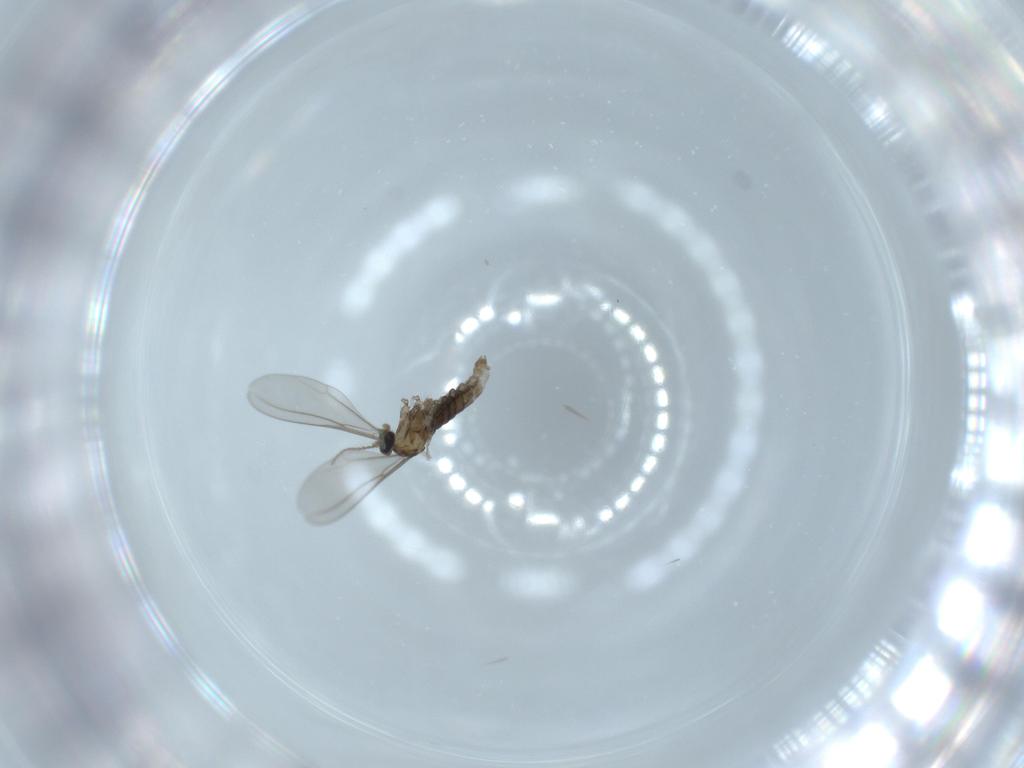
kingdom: Animalia
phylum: Arthropoda
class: Insecta
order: Diptera
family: Cecidomyiidae
